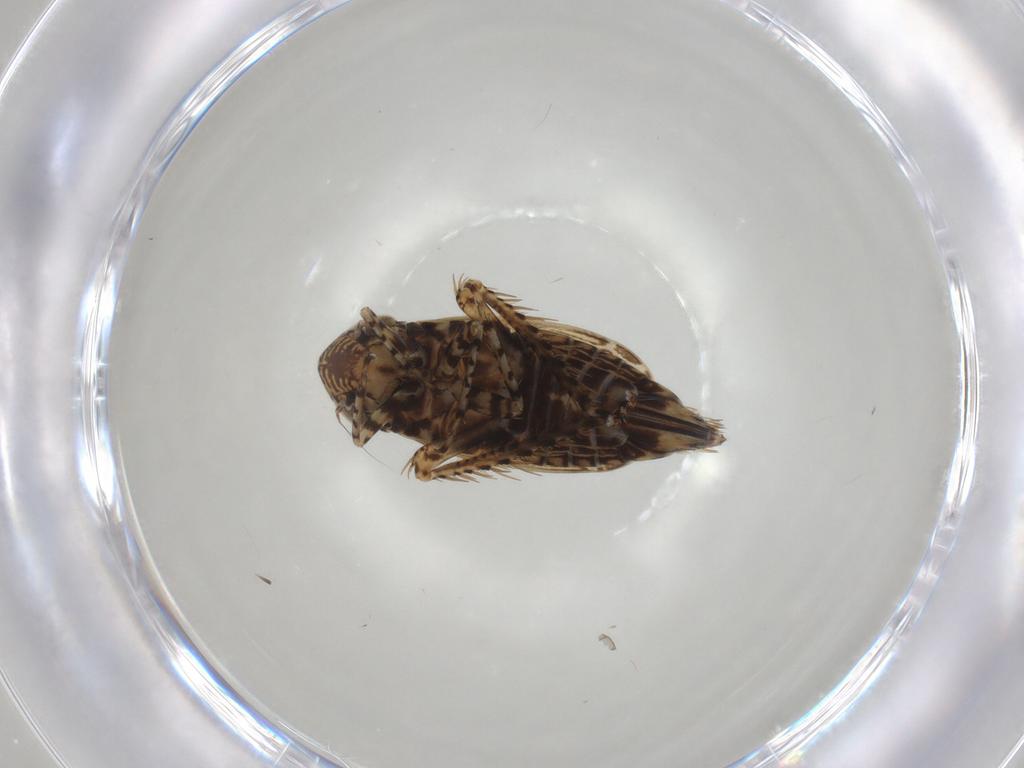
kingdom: Animalia
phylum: Arthropoda
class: Insecta
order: Hemiptera
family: Cicadellidae
